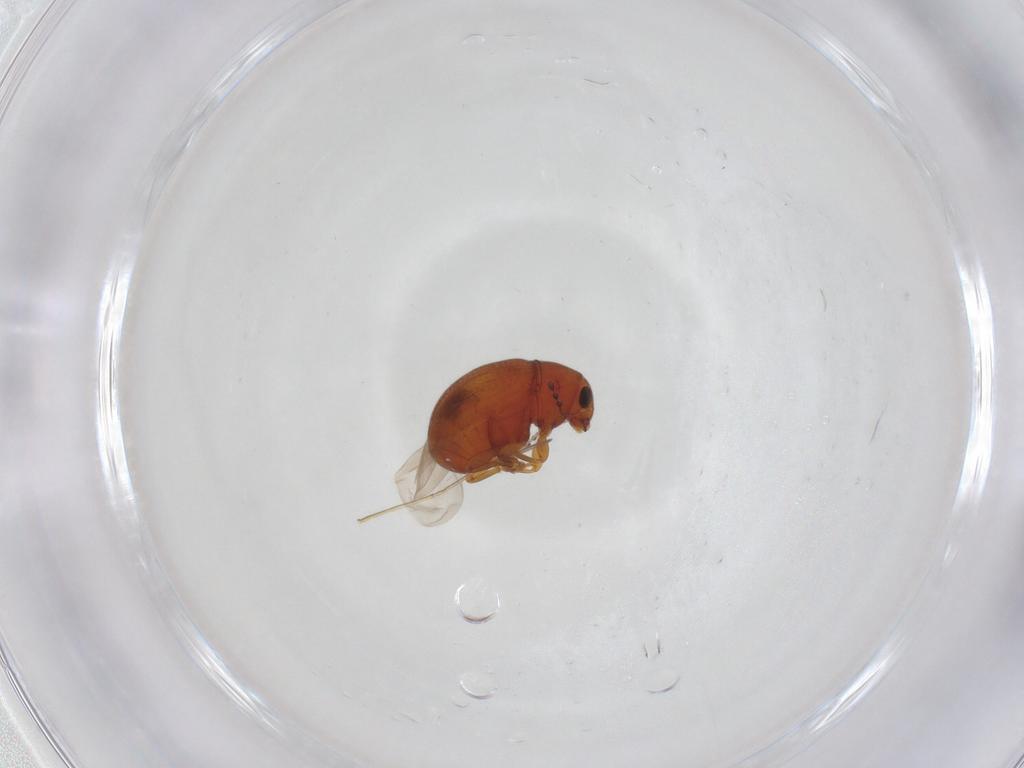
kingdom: Animalia
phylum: Arthropoda
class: Insecta
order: Coleoptera
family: Anthribidae
